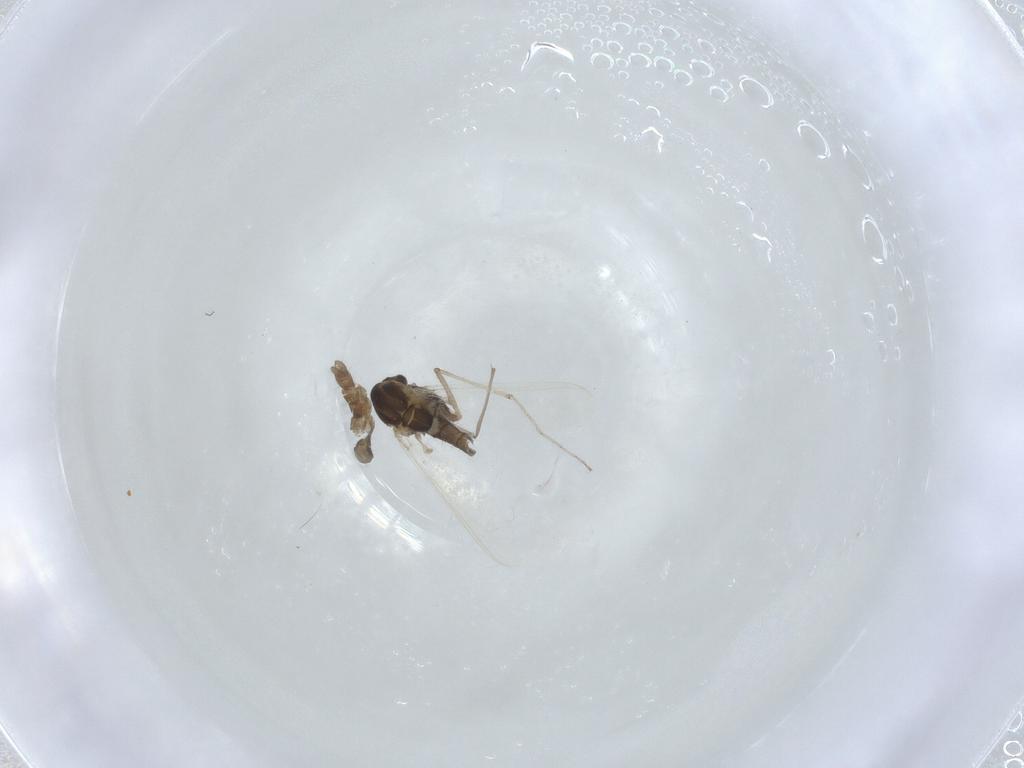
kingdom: Animalia
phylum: Arthropoda
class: Insecta
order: Diptera
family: Chironomidae
